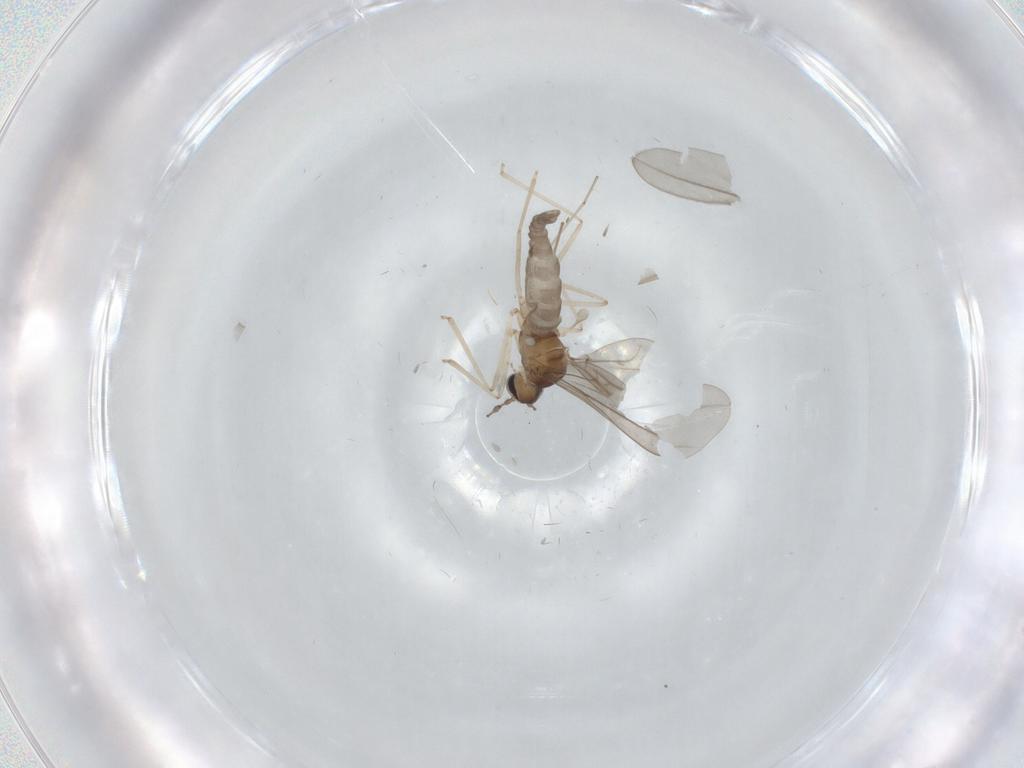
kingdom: Animalia
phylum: Arthropoda
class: Insecta
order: Diptera
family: Cecidomyiidae
